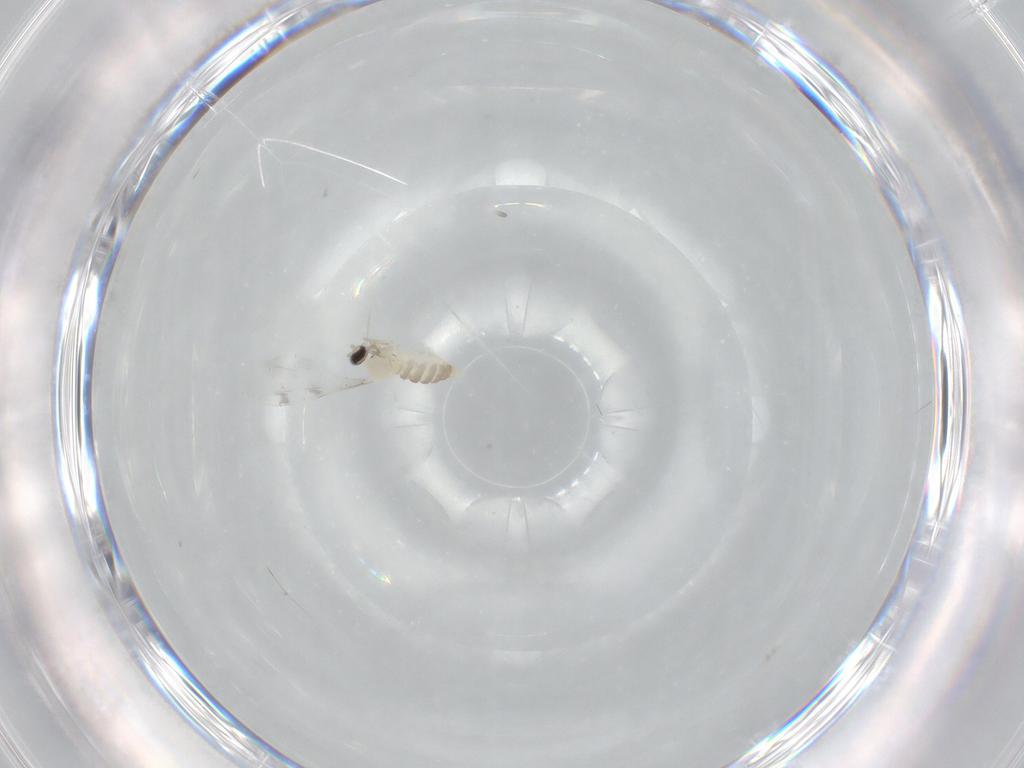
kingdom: Animalia
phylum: Arthropoda
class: Insecta
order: Diptera
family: Cecidomyiidae
